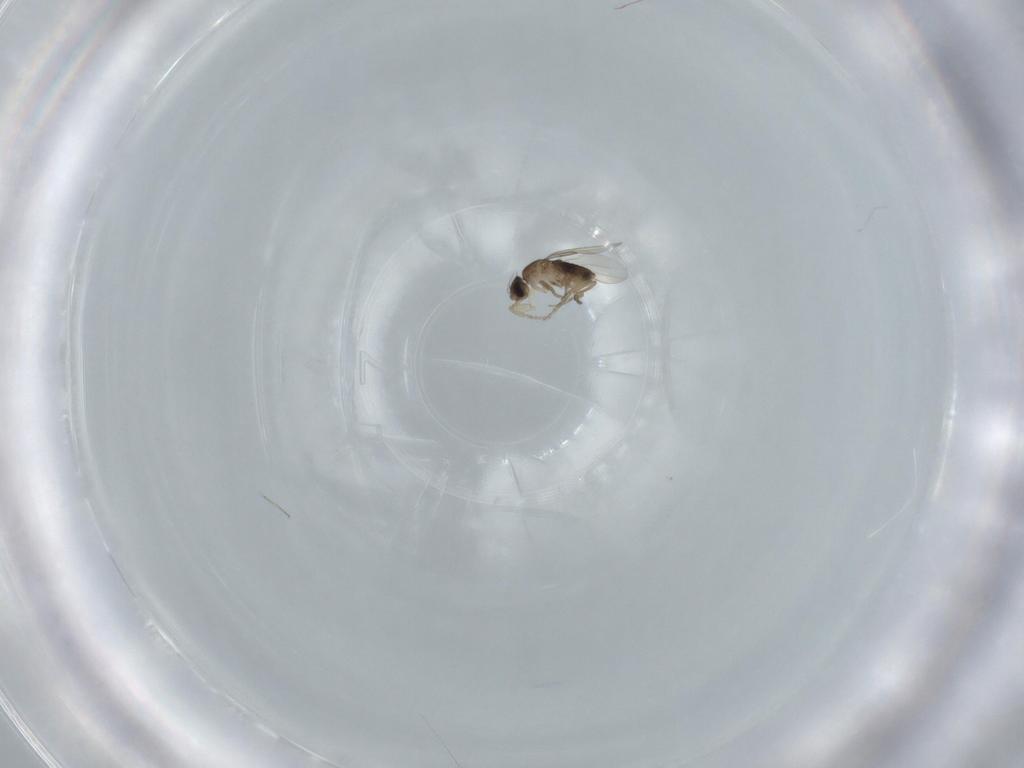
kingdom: Animalia
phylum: Arthropoda
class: Insecta
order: Diptera
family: Phoridae
